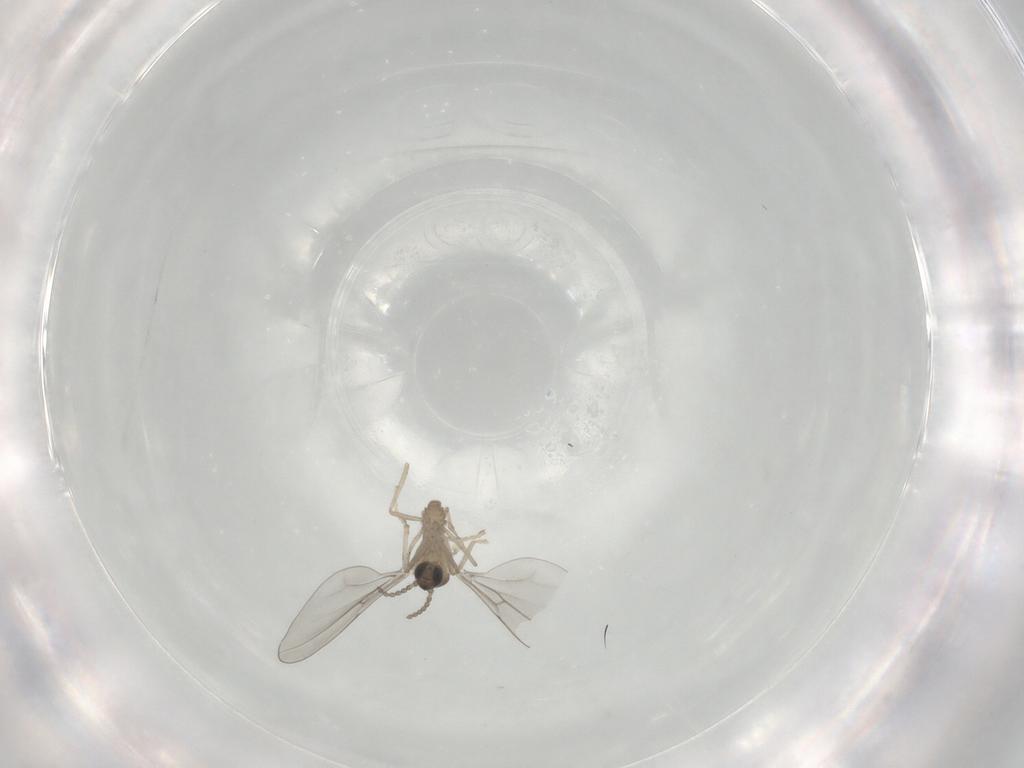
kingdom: Animalia
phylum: Arthropoda
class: Insecta
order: Diptera
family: Cecidomyiidae
